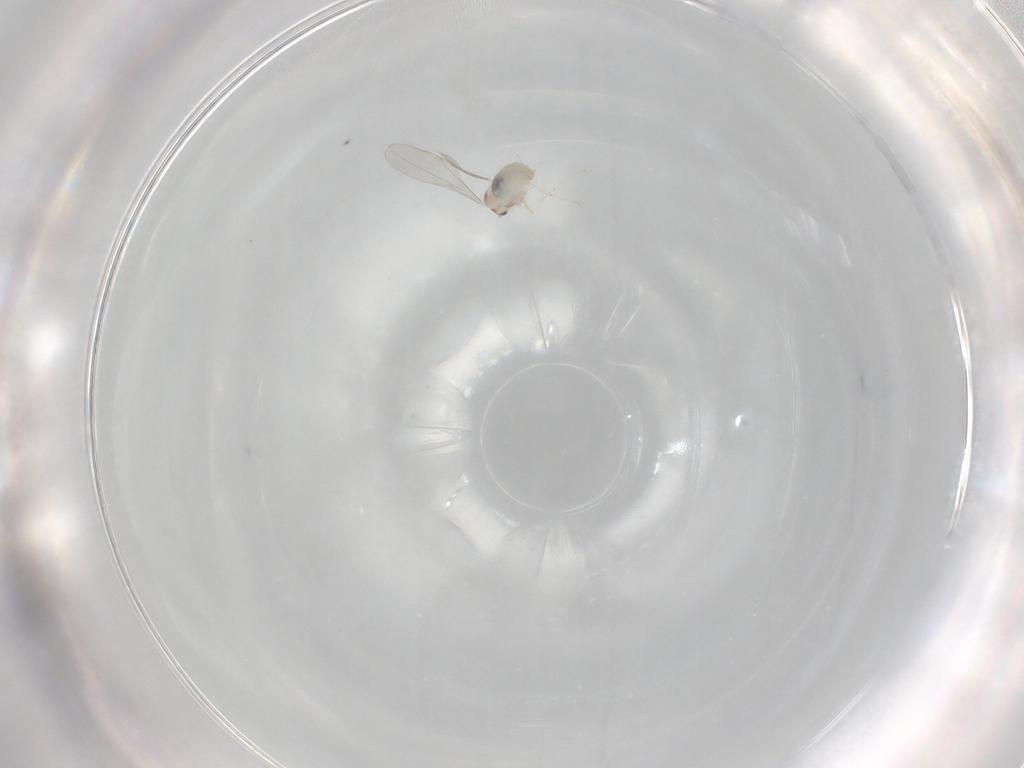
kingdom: Animalia
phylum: Arthropoda
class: Insecta
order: Diptera
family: Cecidomyiidae
